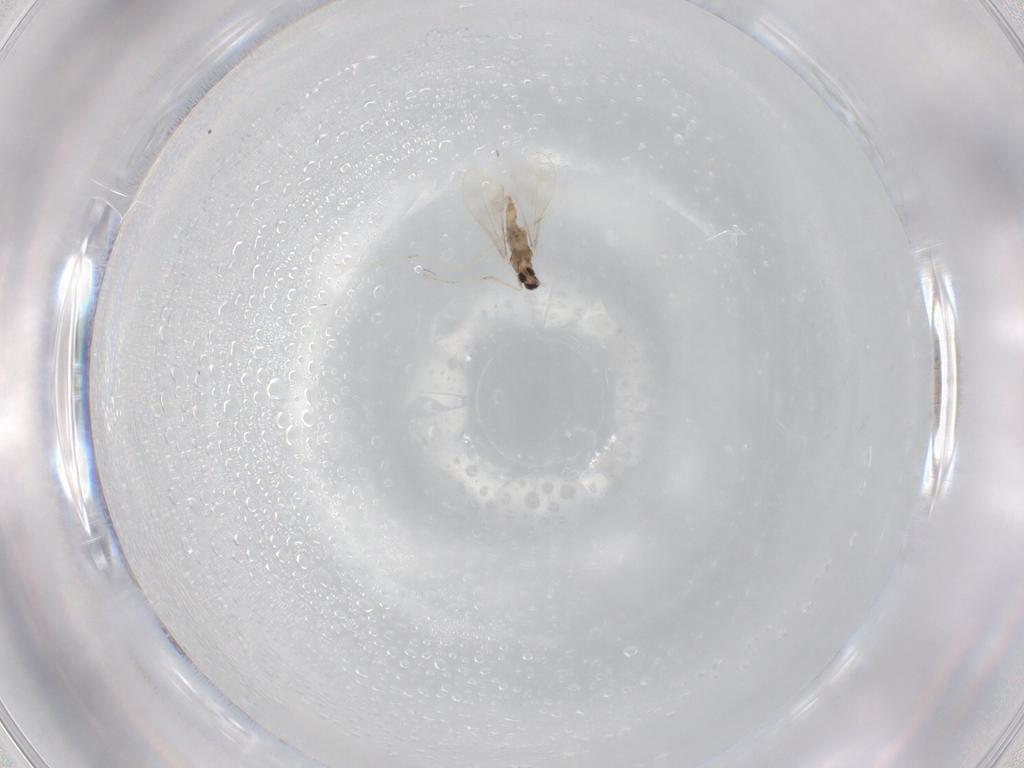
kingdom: Animalia
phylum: Arthropoda
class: Insecta
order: Diptera
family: Cecidomyiidae
